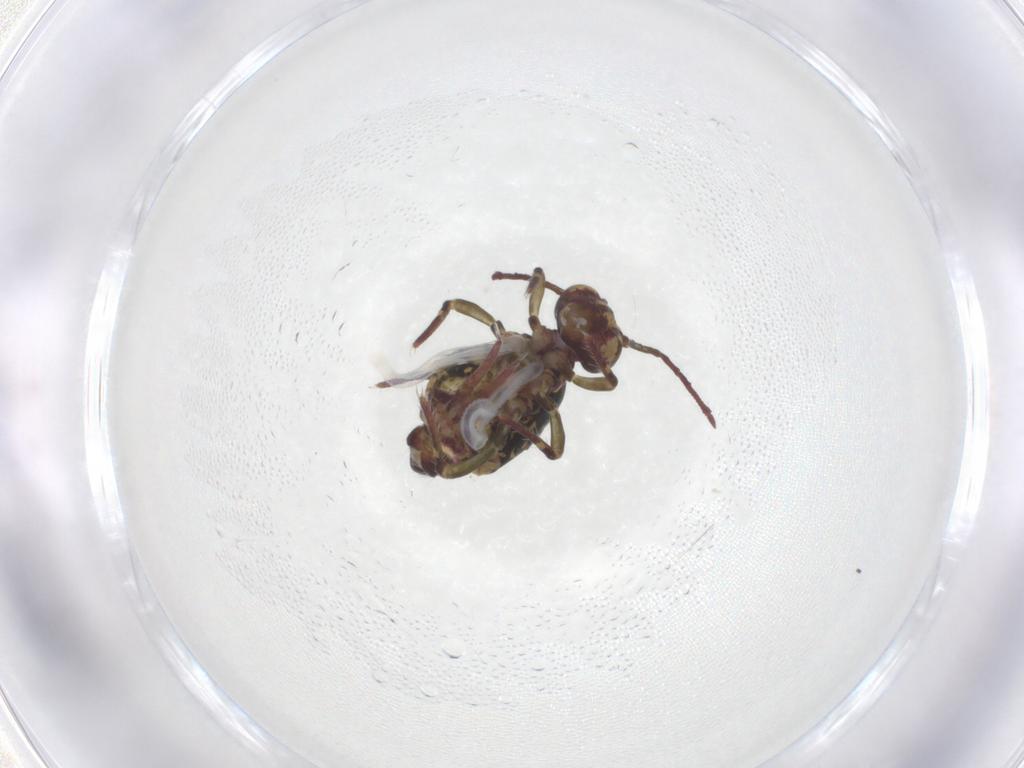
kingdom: Animalia
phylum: Arthropoda
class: Collembola
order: Symphypleona
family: Dicyrtomidae
